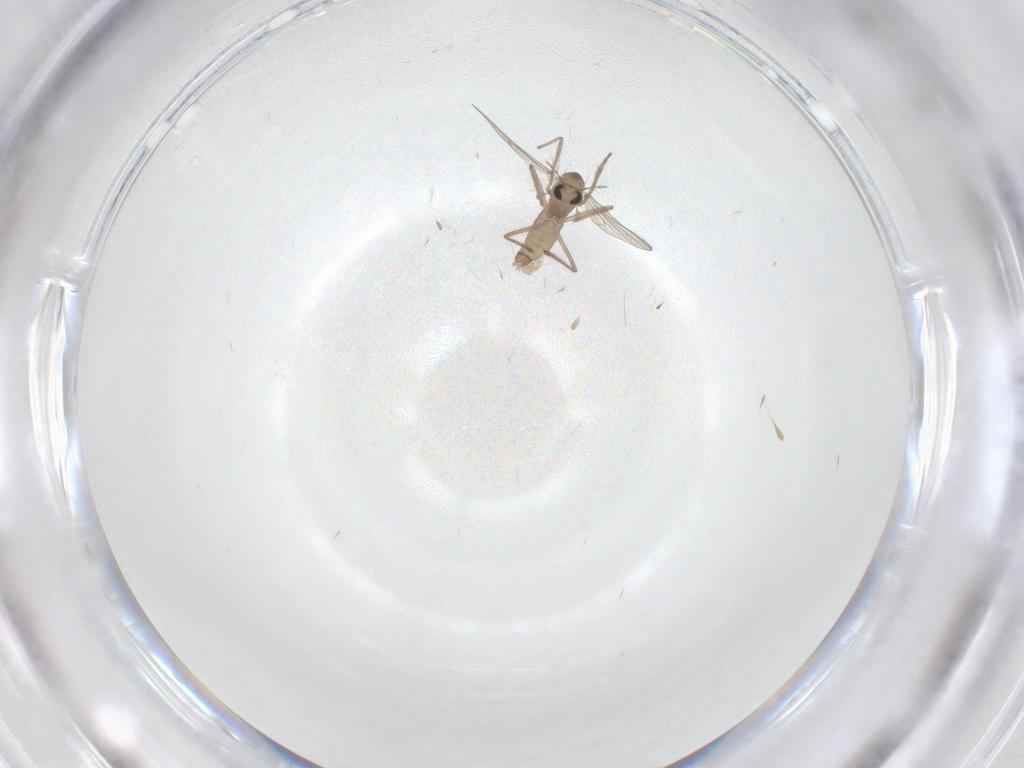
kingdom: Animalia
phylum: Arthropoda
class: Insecta
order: Diptera
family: Chironomidae
